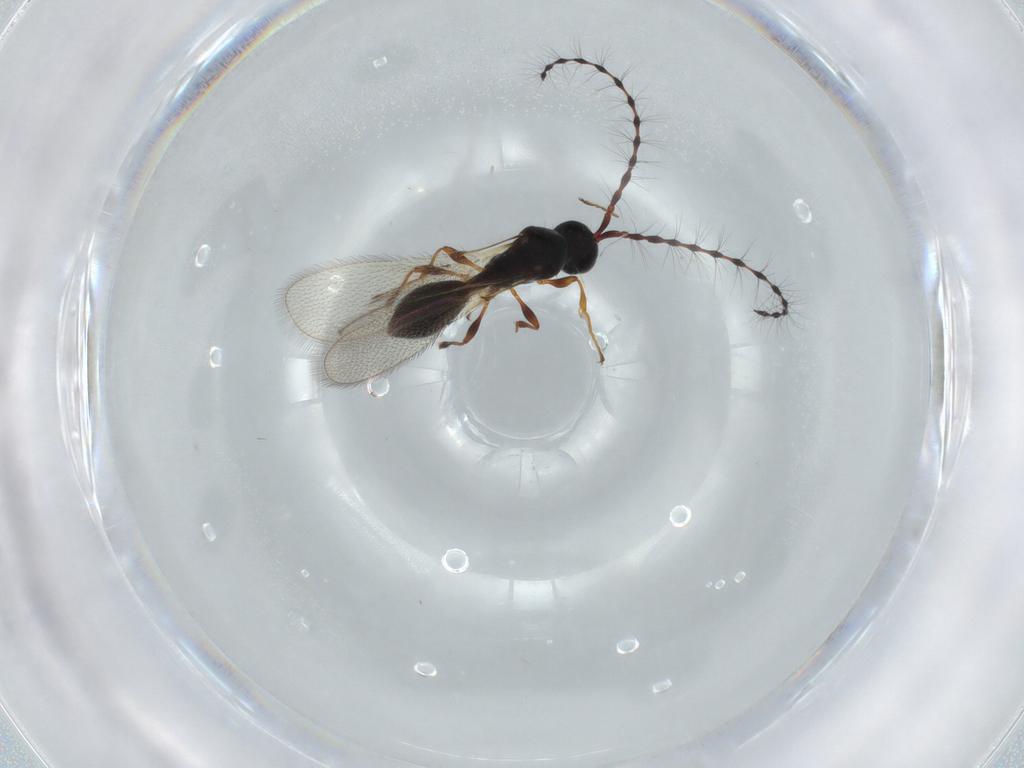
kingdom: Animalia
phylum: Arthropoda
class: Insecta
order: Hymenoptera
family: Diapriidae
